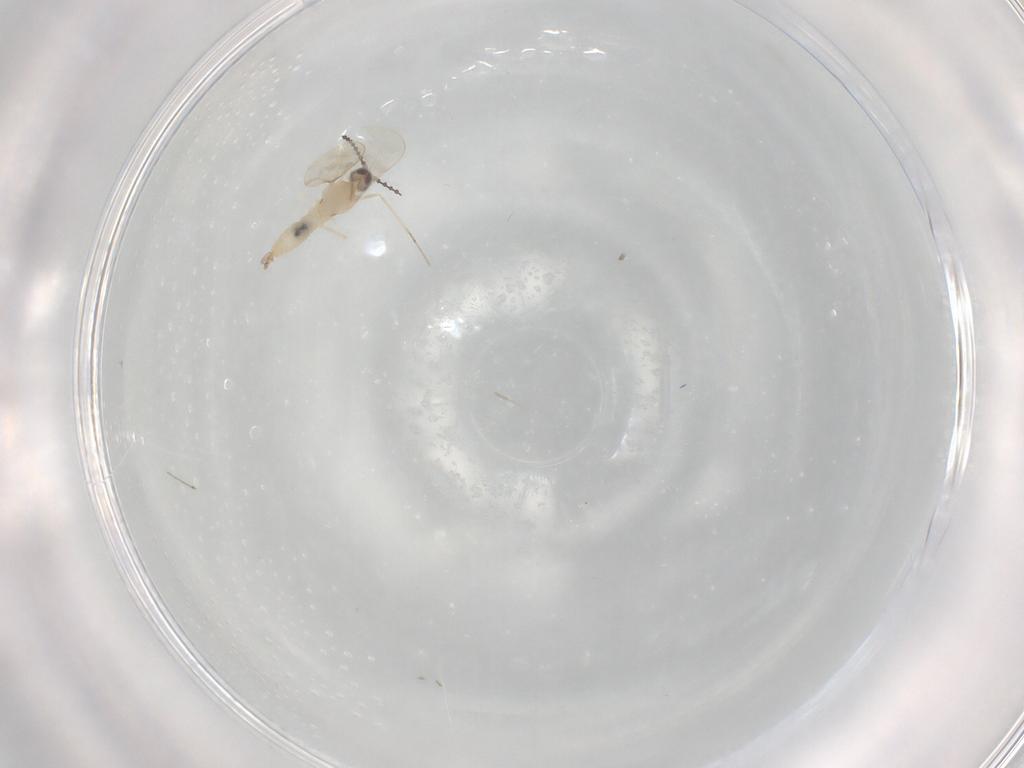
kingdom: Animalia
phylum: Arthropoda
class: Insecta
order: Diptera
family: Cecidomyiidae
